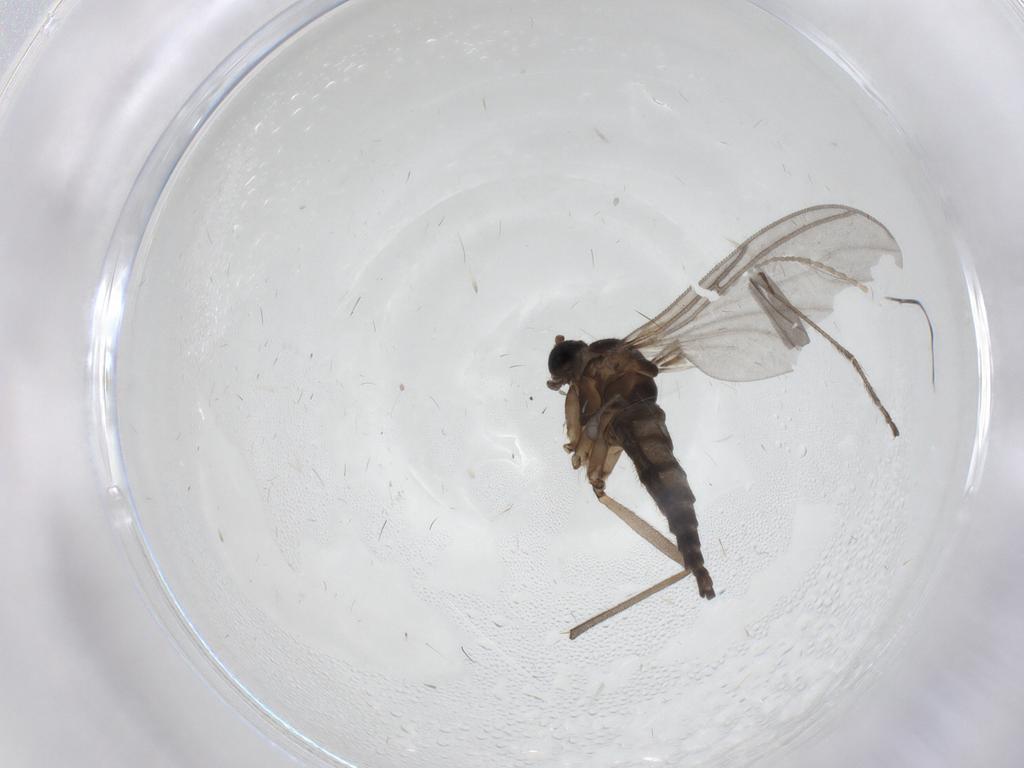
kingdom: Animalia
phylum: Arthropoda
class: Insecta
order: Diptera
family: Sciaridae
